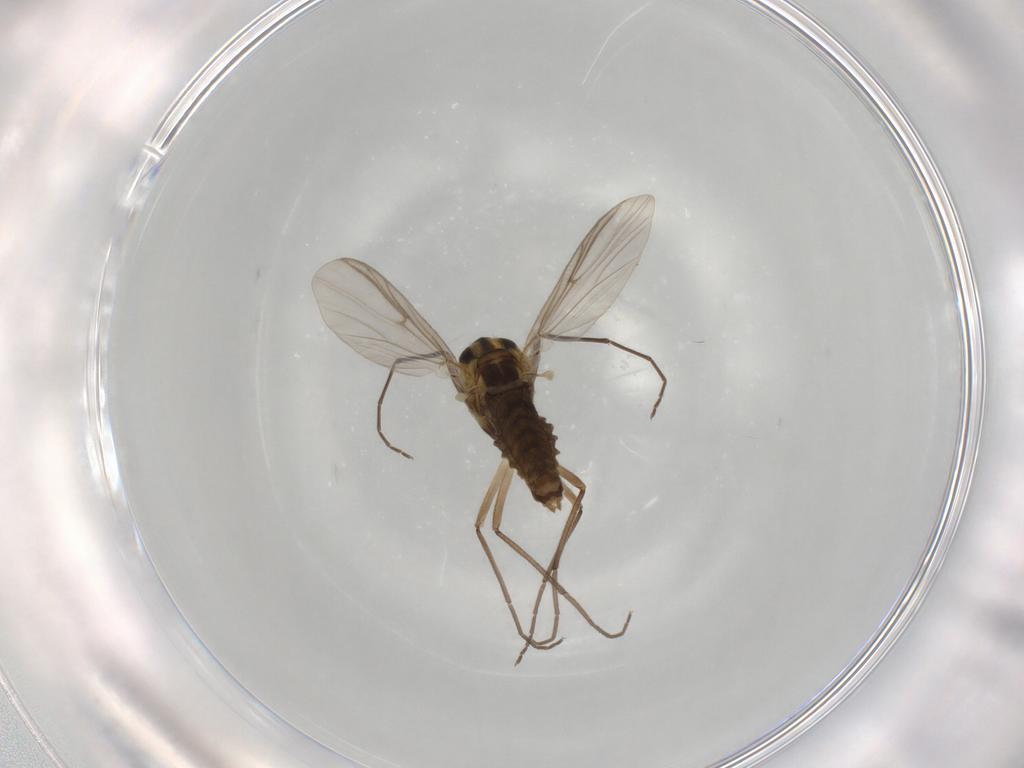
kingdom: Animalia
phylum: Arthropoda
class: Insecta
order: Diptera
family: Chironomidae
